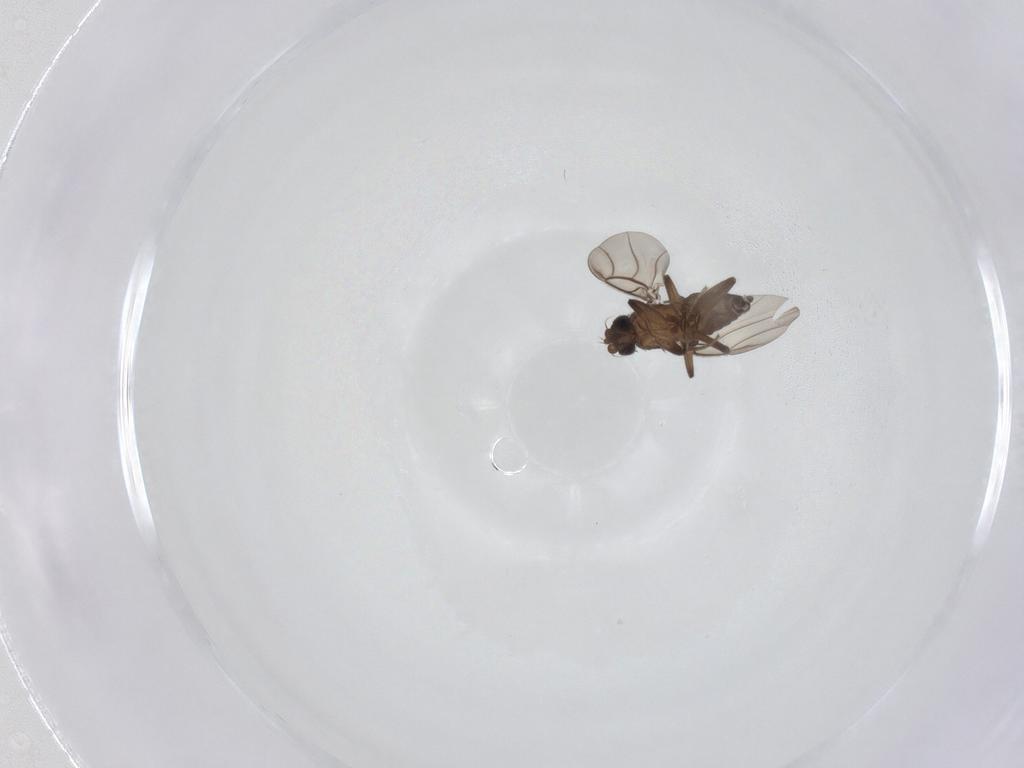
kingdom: Animalia
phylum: Arthropoda
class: Insecta
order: Diptera
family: Phoridae
